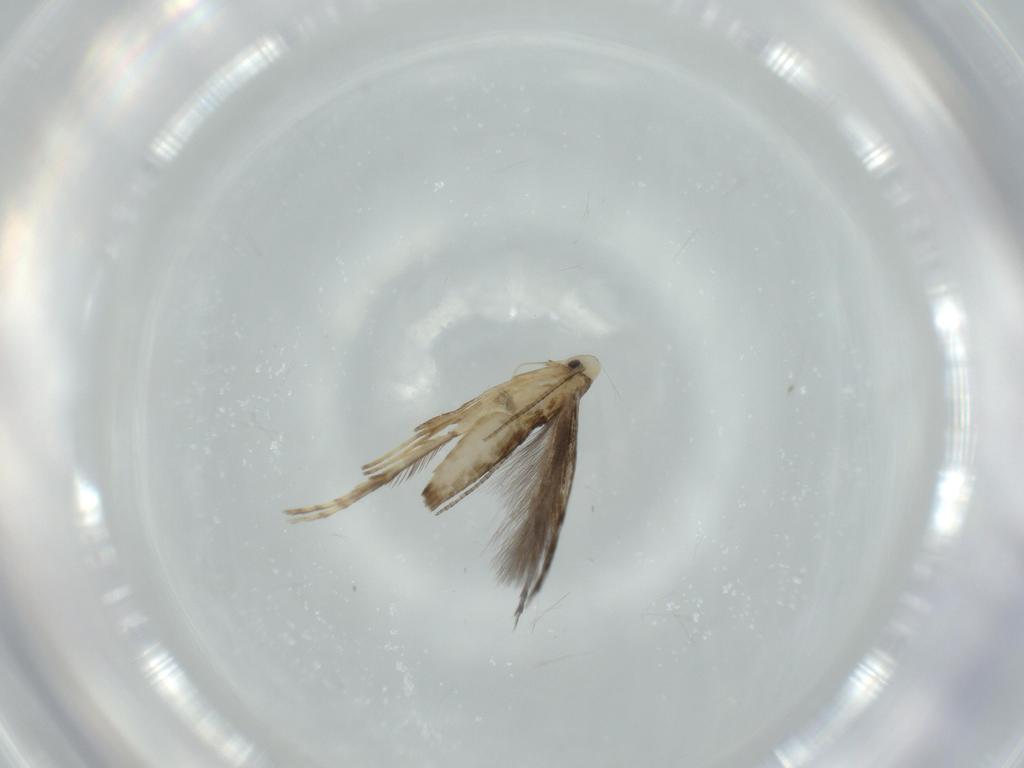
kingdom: Animalia
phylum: Arthropoda
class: Insecta
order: Lepidoptera
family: Gracillariidae
